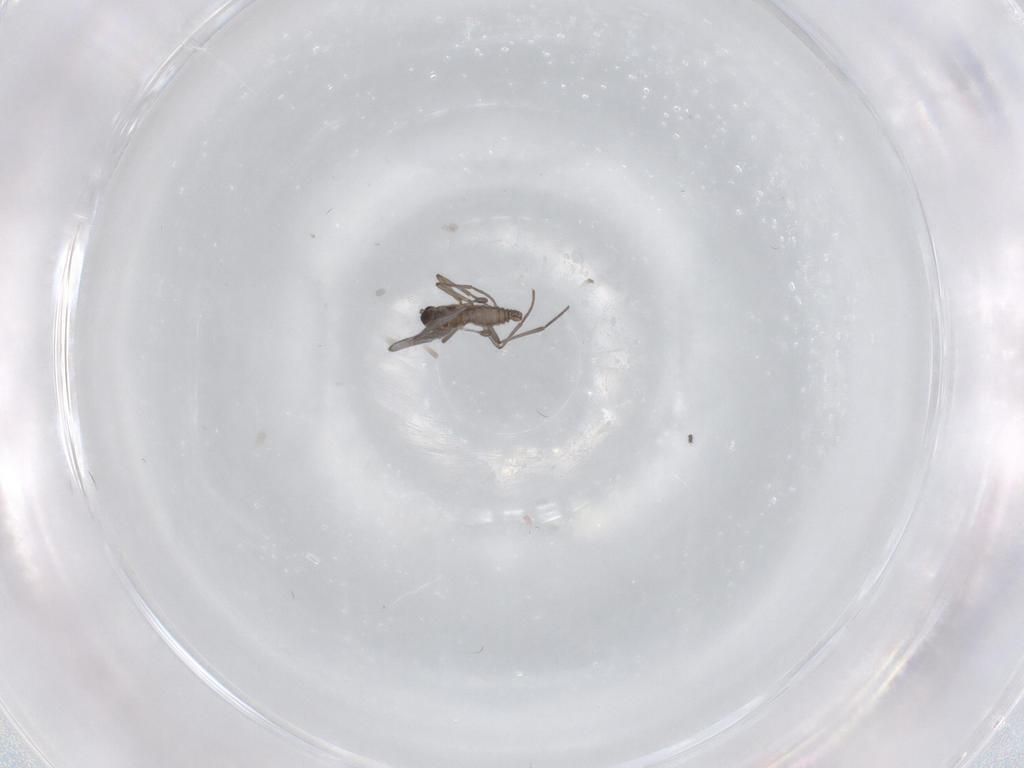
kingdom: Animalia
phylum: Arthropoda
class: Insecta
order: Diptera
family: Sciaridae
